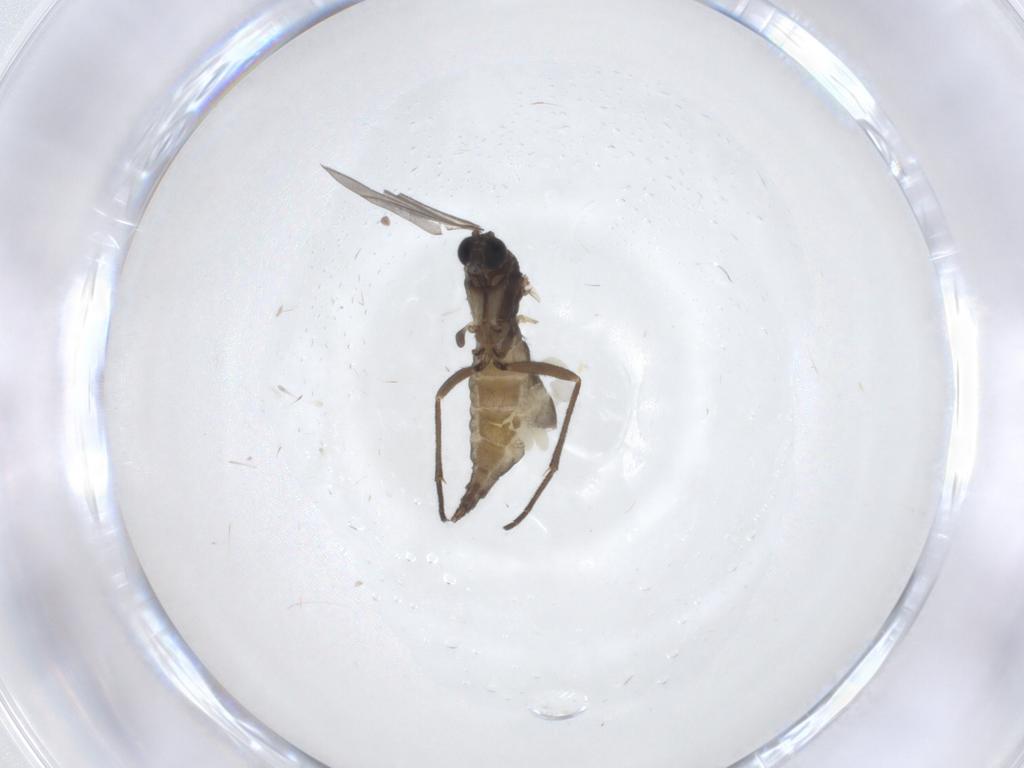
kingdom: Animalia
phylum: Arthropoda
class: Insecta
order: Diptera
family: Sciaridae
